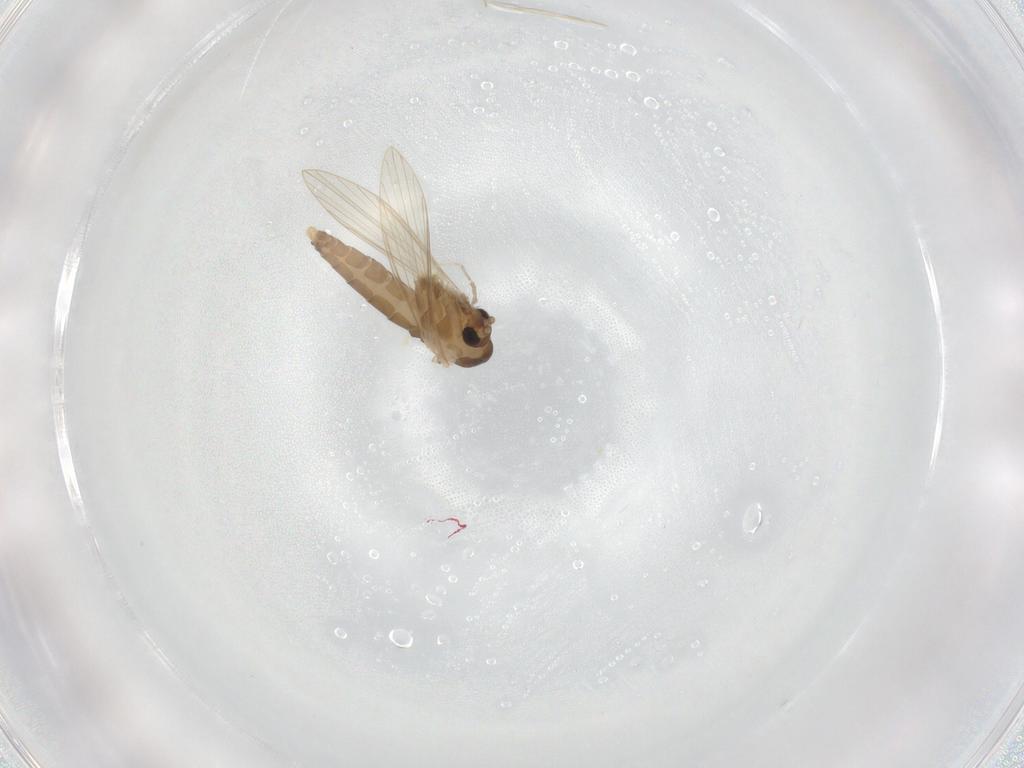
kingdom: Animalia
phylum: Arthropoda
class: Insecta
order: Diptera
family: Psychodidae
